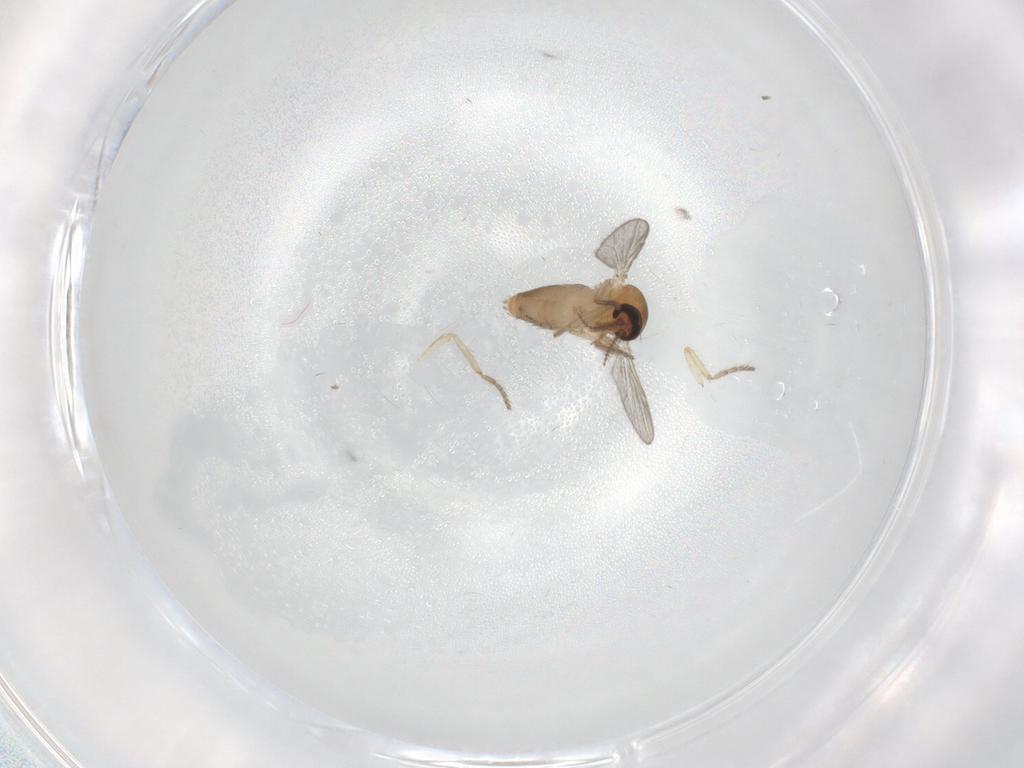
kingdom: Animalia
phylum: Arthropoda
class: Insecta
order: Diptera
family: Ceratopogonidae
